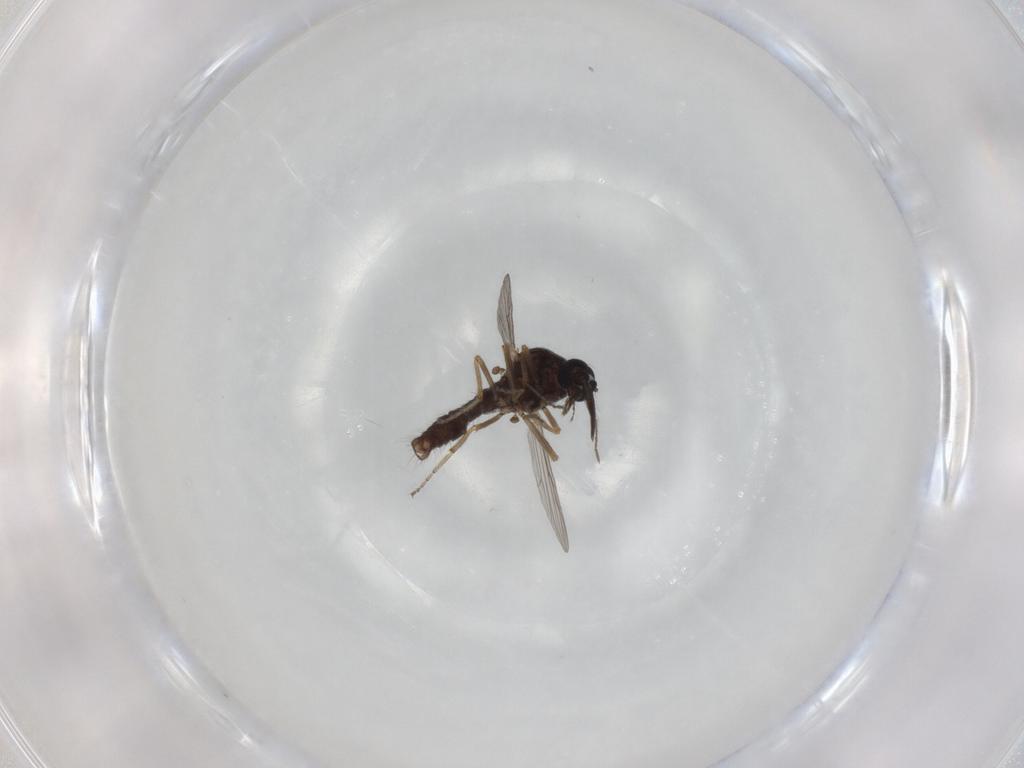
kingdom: Animalia
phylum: Arthropoda
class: Insecta
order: Diptera
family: Ceratopogonidae
